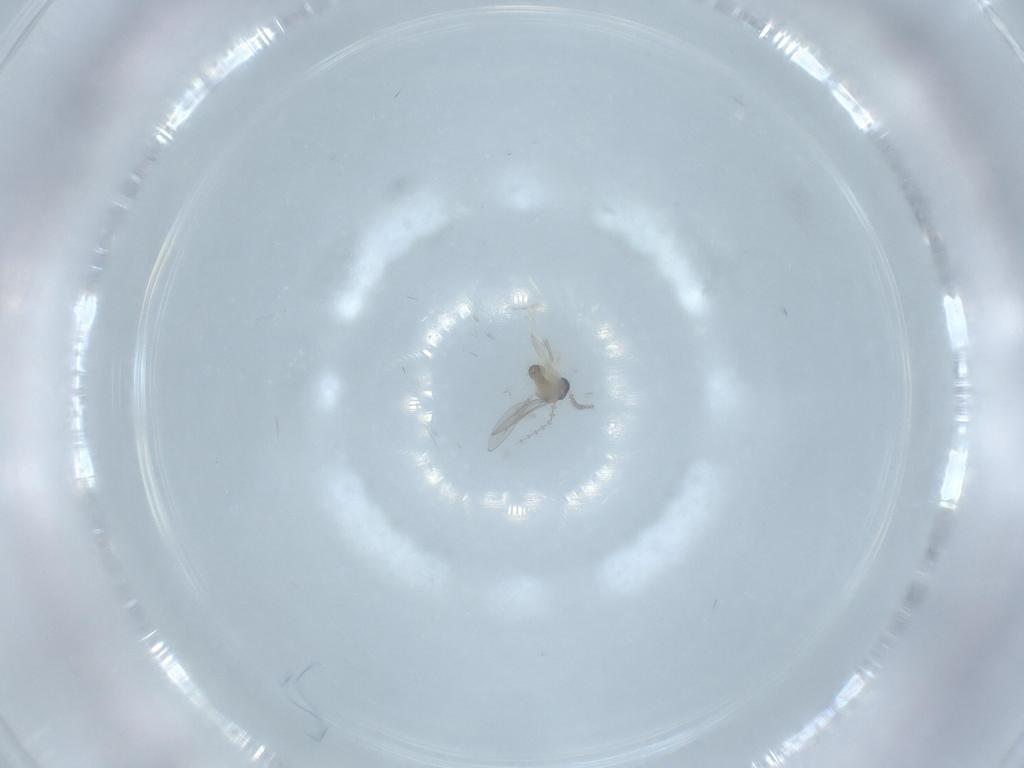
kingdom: Animalia
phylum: Arthropoda
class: Insecta
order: Diptera
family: Cecidomyiidae
